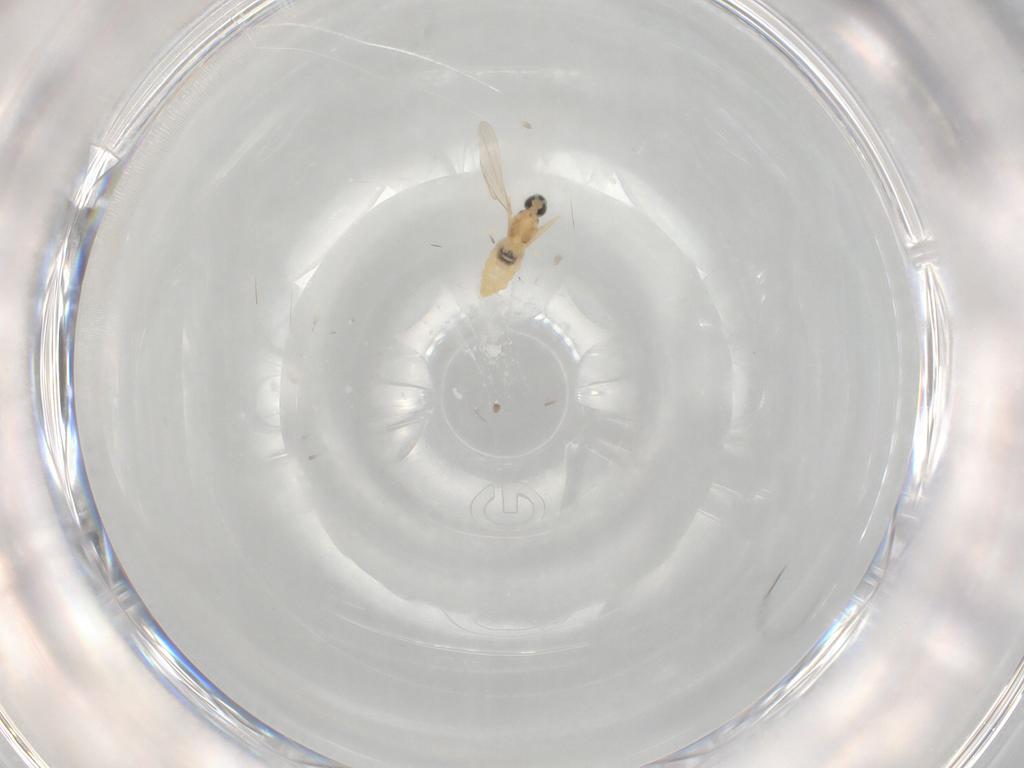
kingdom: Animalia
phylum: Arthropoda
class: Insecta
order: Diptera
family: Cecidomyiidae
